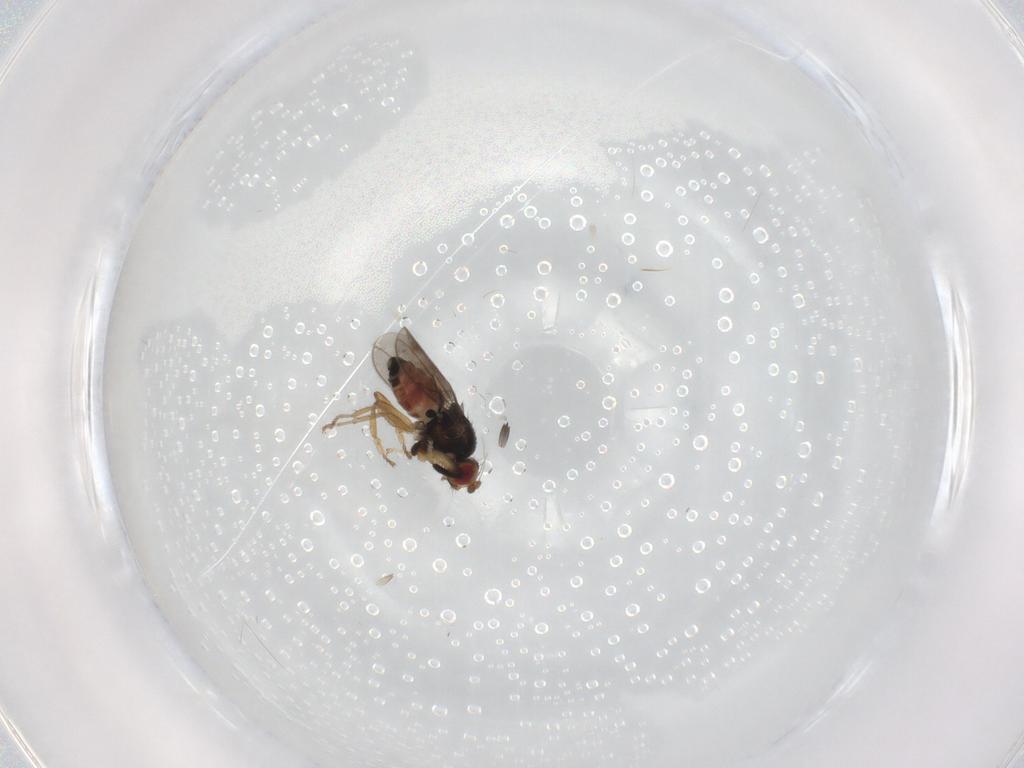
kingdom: Animalia
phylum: Arthropoda
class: Insecta
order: Diptera
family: Sphaeroceridae
